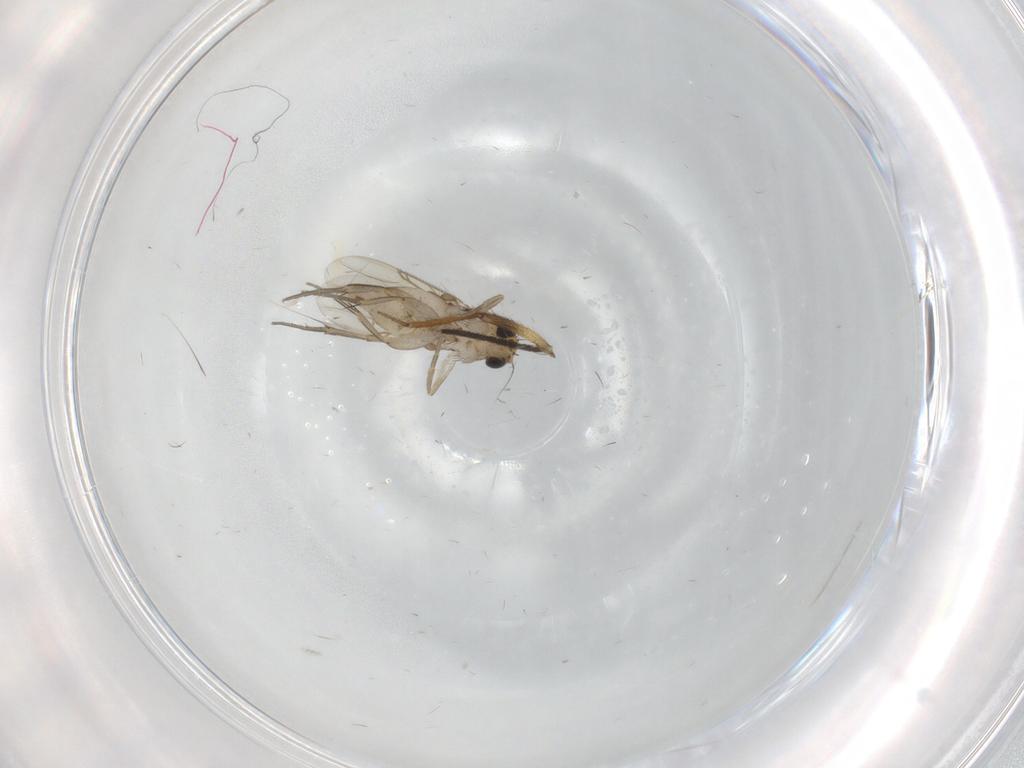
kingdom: Animalia
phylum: Arthropoda
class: Insecta
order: Diptera
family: Phoridae
